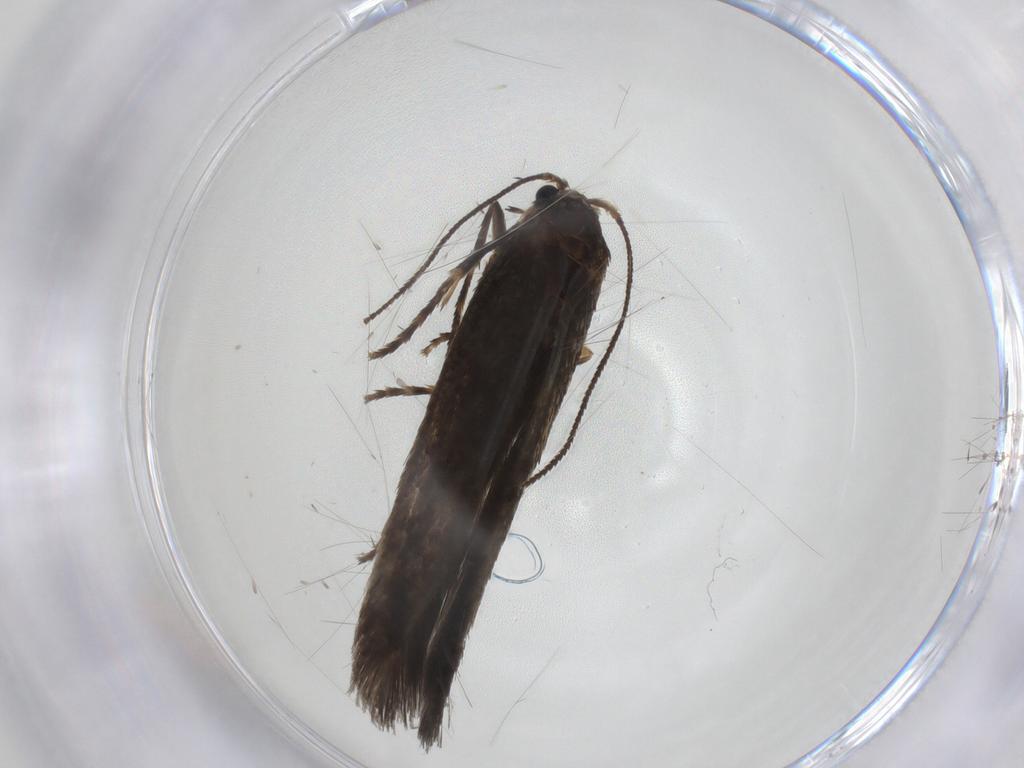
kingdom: Animalia
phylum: Arthropoda
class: Insecta
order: Lepidoptera
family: Nepticulidae
